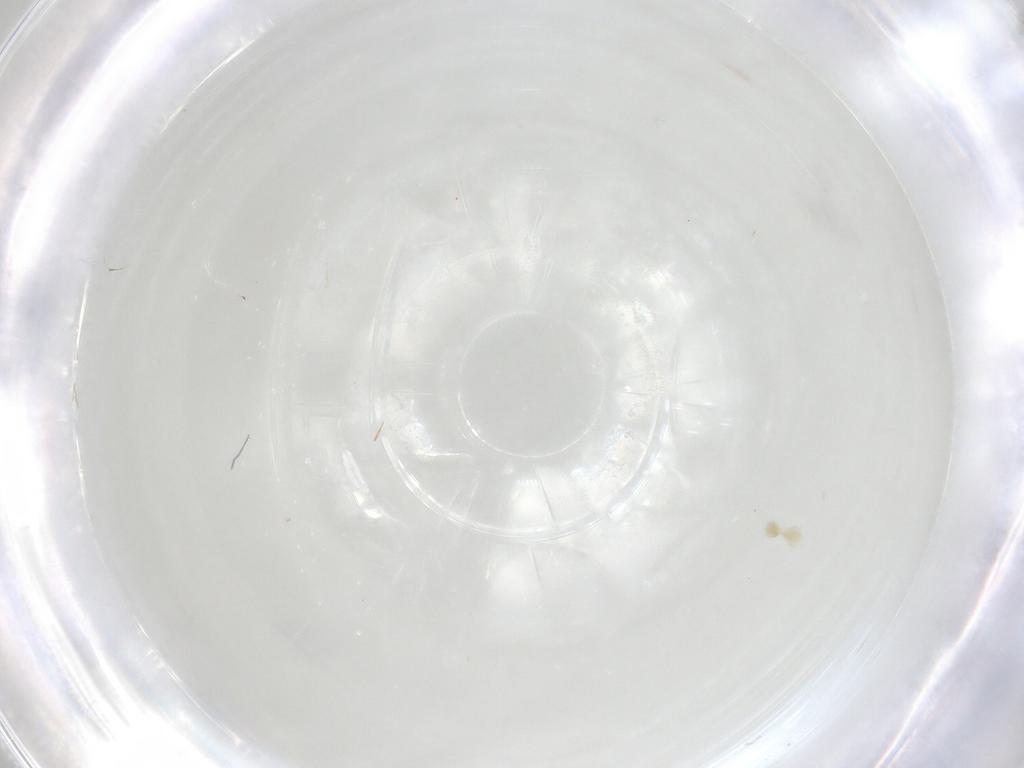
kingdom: Animalia
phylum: Arthropoda
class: Arachnida
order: Trombidiformes
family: Eupodidae
